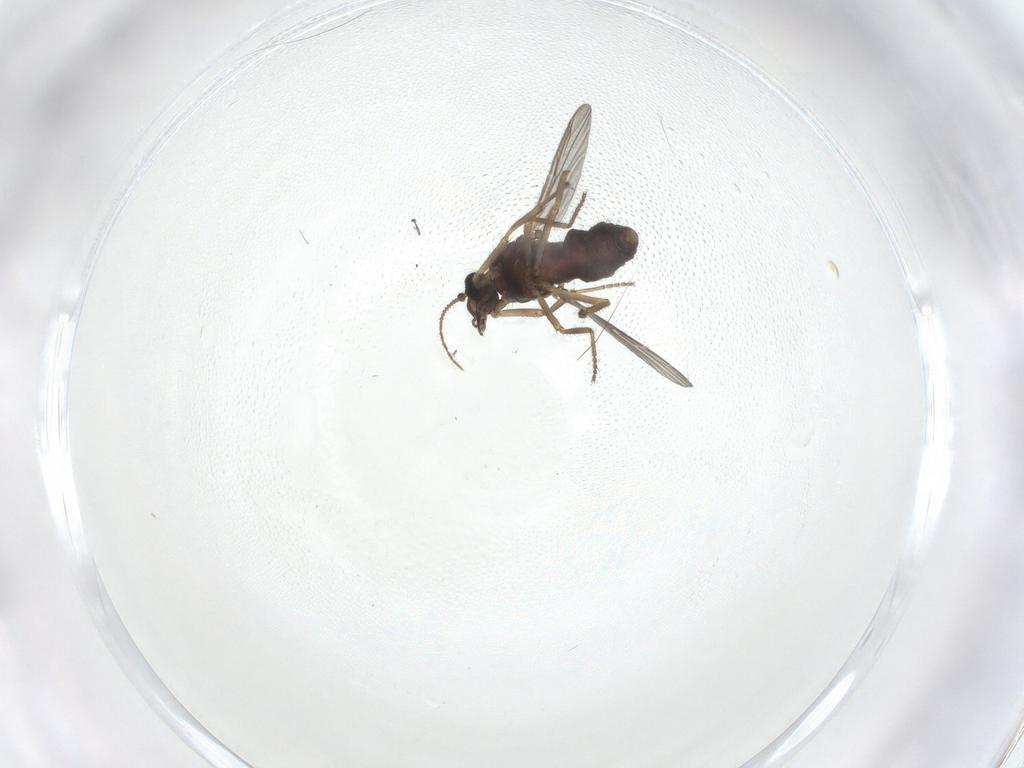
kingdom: Animalia
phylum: Arthropoda
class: Insecta
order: Diptera
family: Ceratopogonidae
